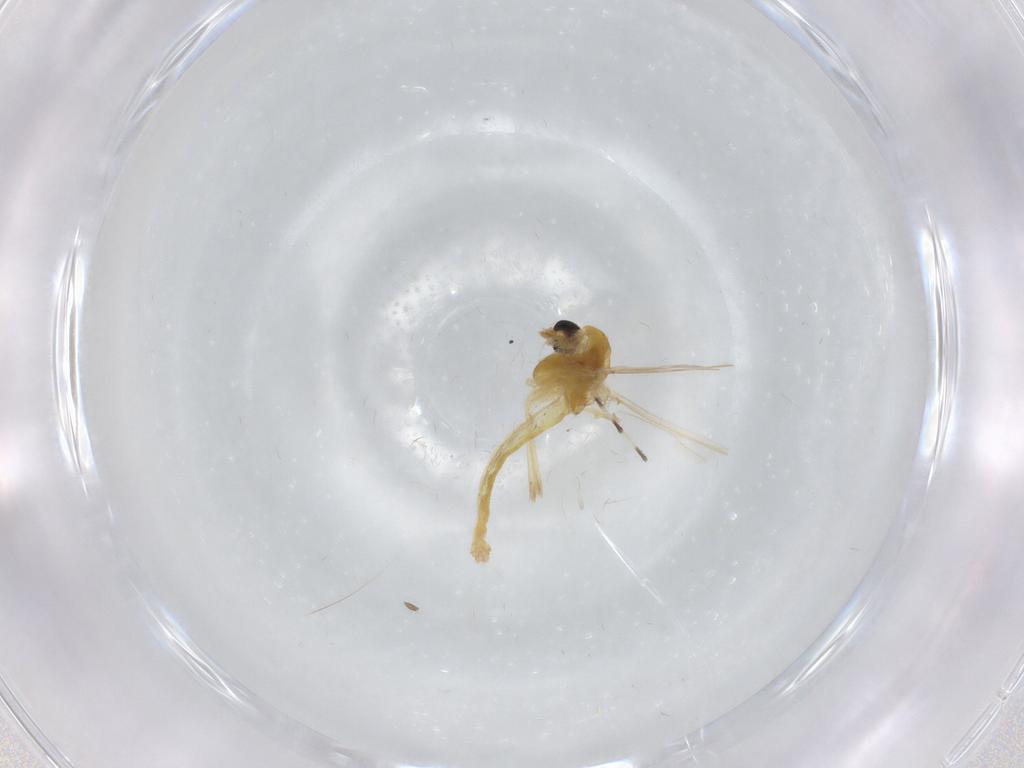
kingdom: Animalia
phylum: Arthropoda
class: Insecta
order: Diptera
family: Chironomidae
